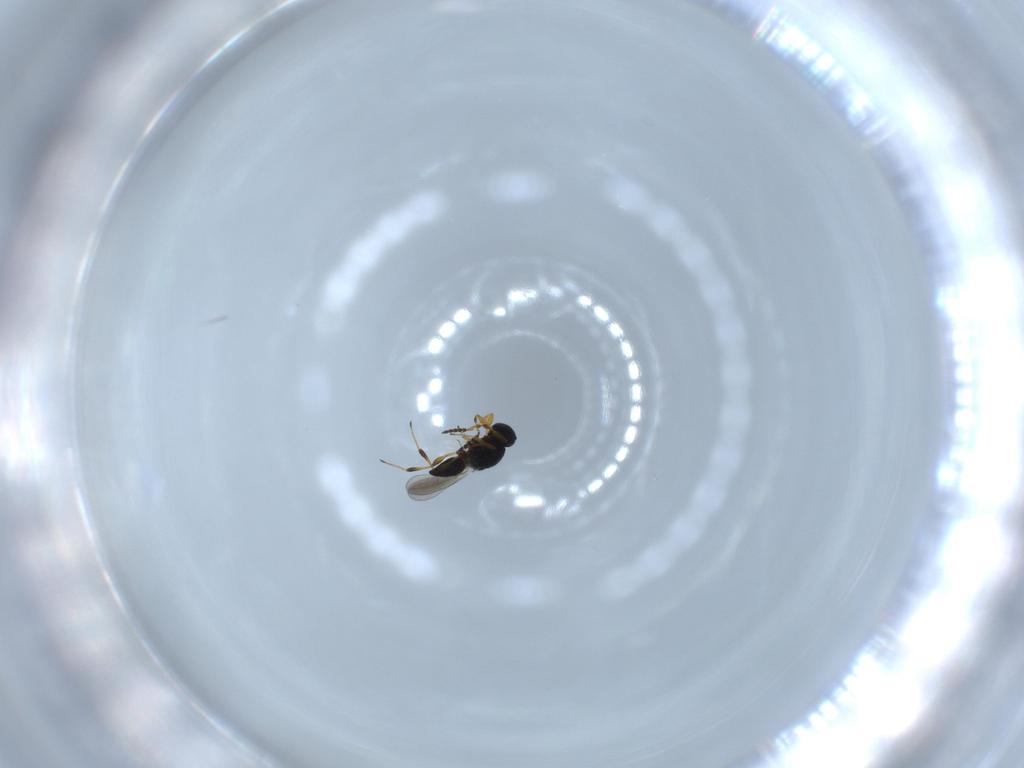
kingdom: Animalia
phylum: Arthropoda
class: Insecta
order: Hymenoptera
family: Platygastridae
